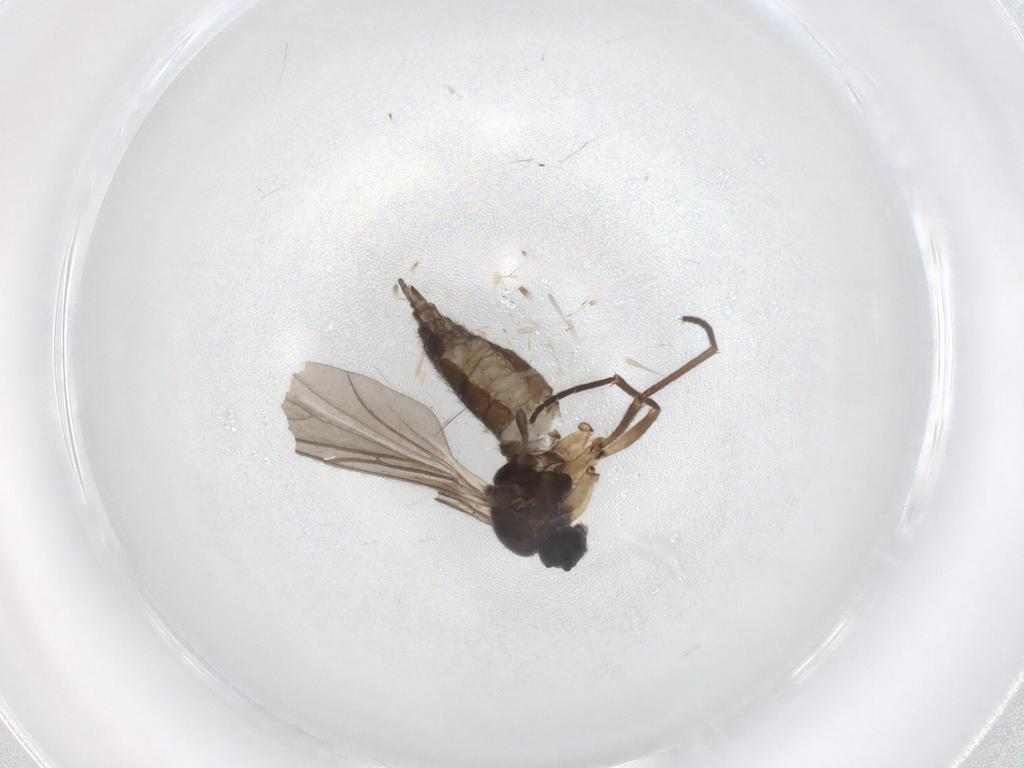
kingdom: Animalia
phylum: Arthropoda
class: Insecta
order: Diptera
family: Sciaridae
